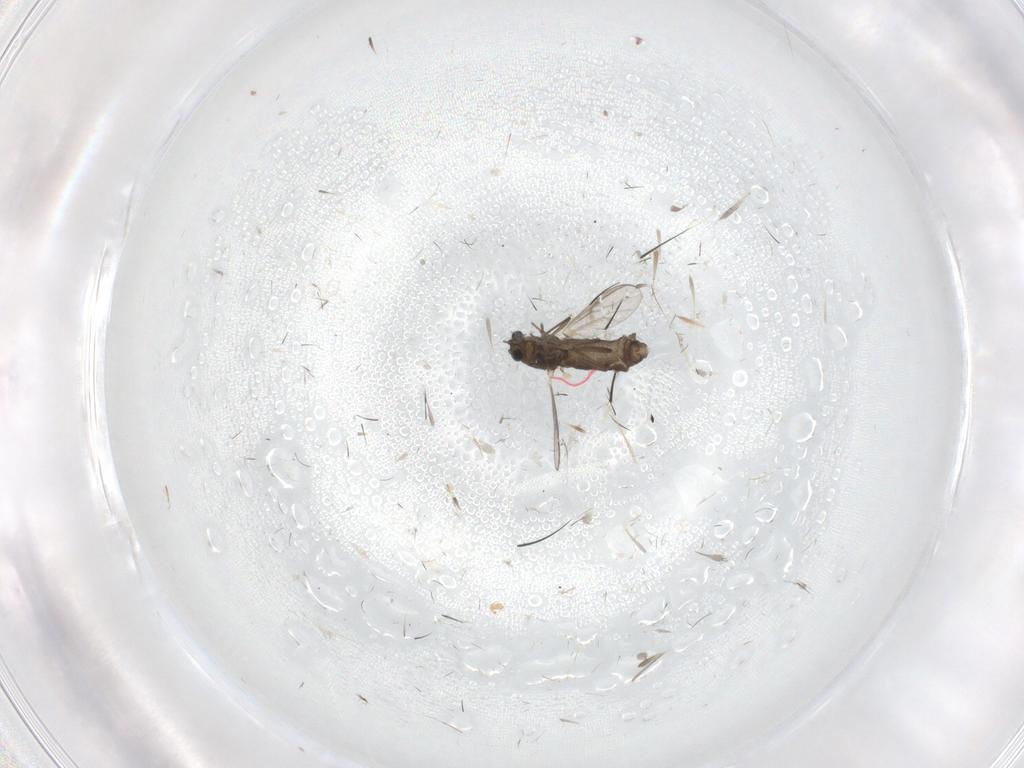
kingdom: Animalia
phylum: Arthropoda
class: Insecta
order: Diptera
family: Chironomidae
